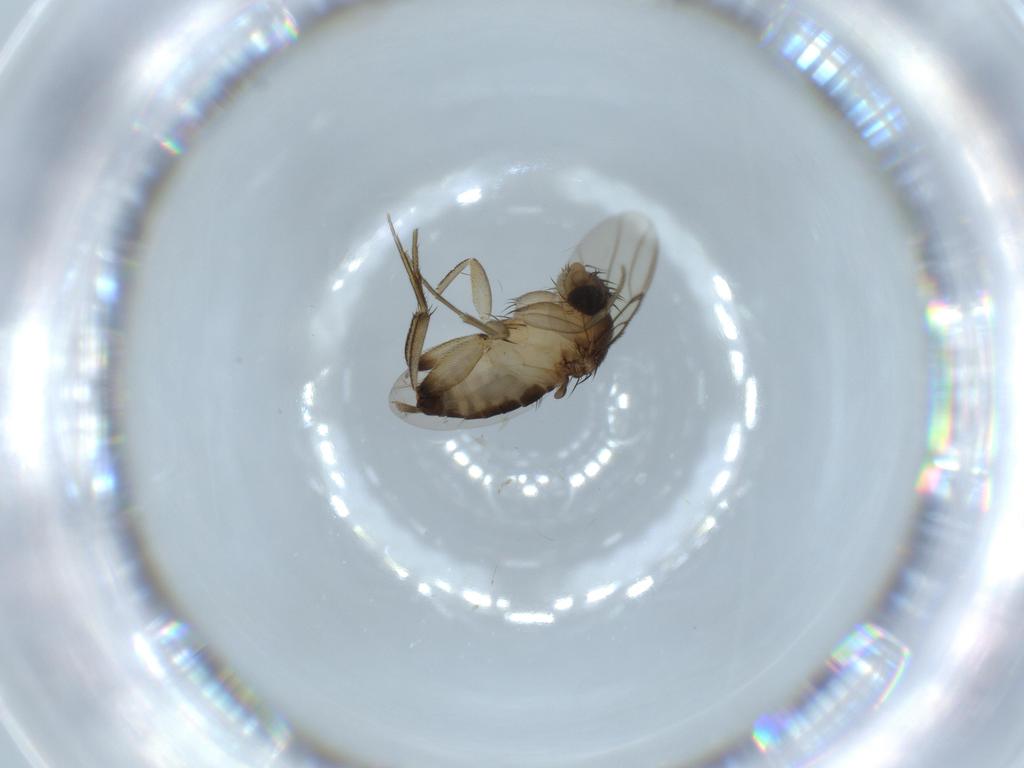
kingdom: Animalia
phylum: Arthropoda
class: Insecta
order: Diptera
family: Phoridae
